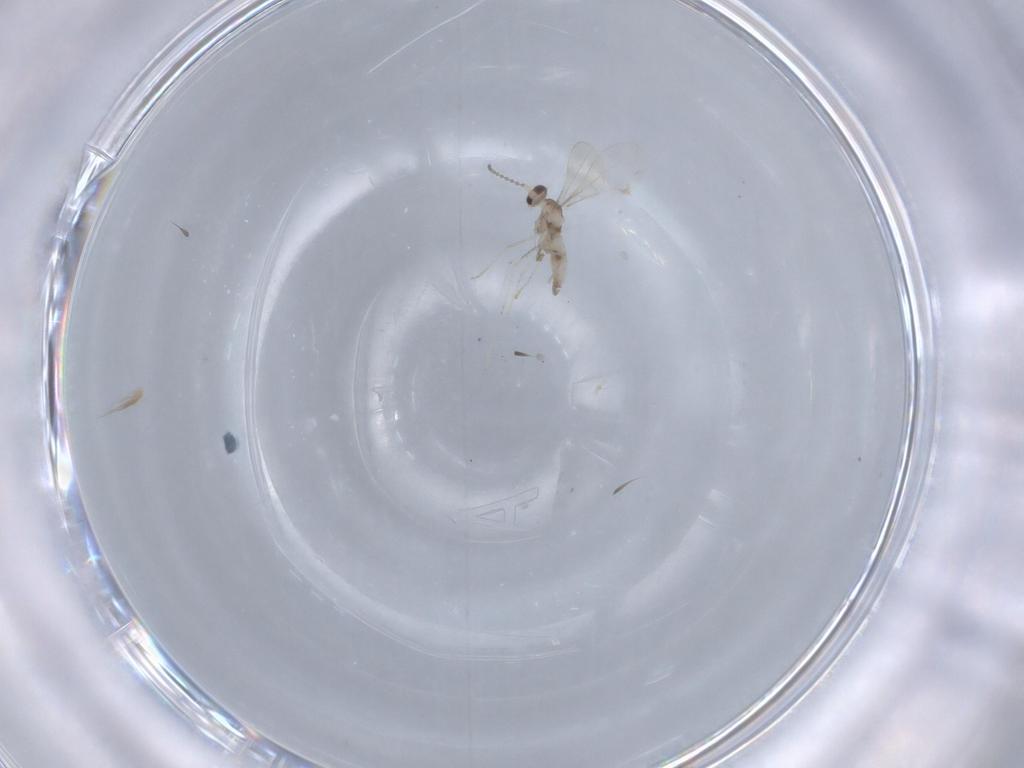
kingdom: Animalia
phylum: Arthropoda
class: Insecta
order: Diptera
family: Cecidomyiidae
